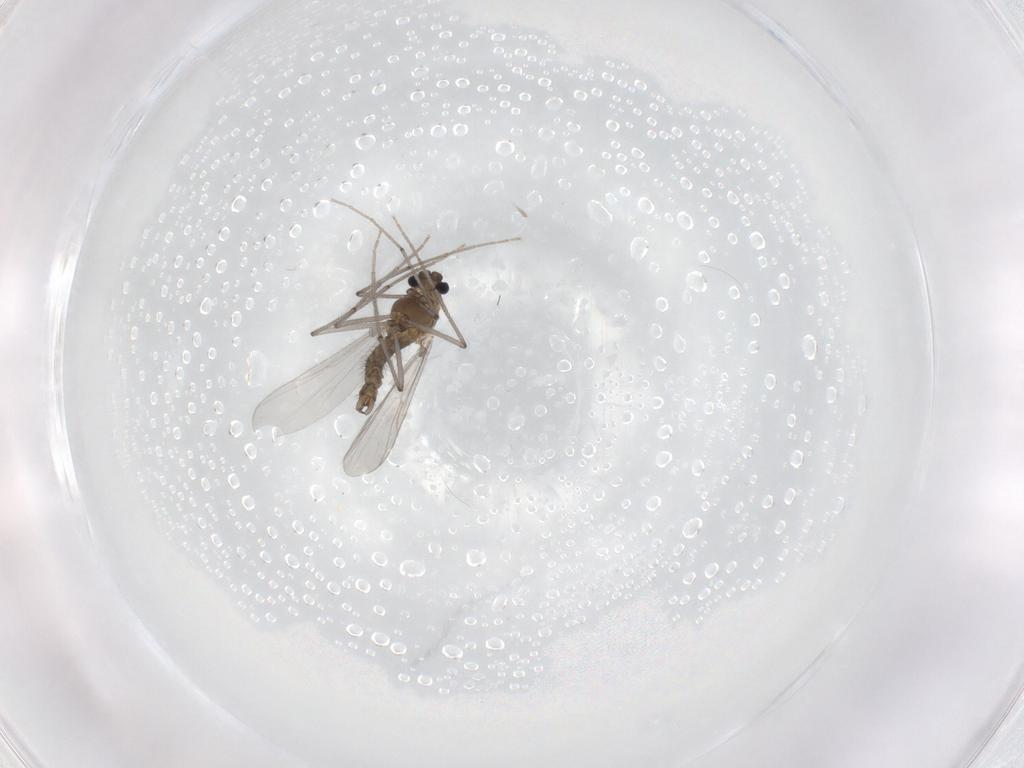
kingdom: Animalia
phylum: Arthropoda
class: Insecta
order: Diptera
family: Chironomidae
